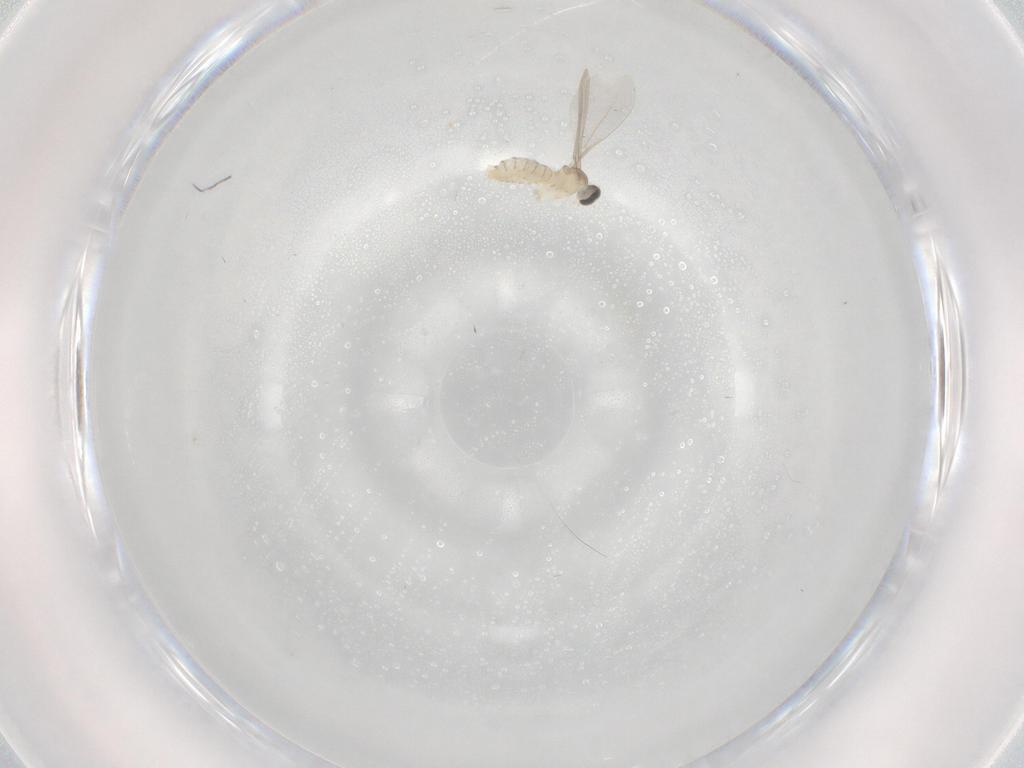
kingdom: Animalia
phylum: Arthropoda
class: Insecta
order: Diptera
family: Cecidomyiidae
